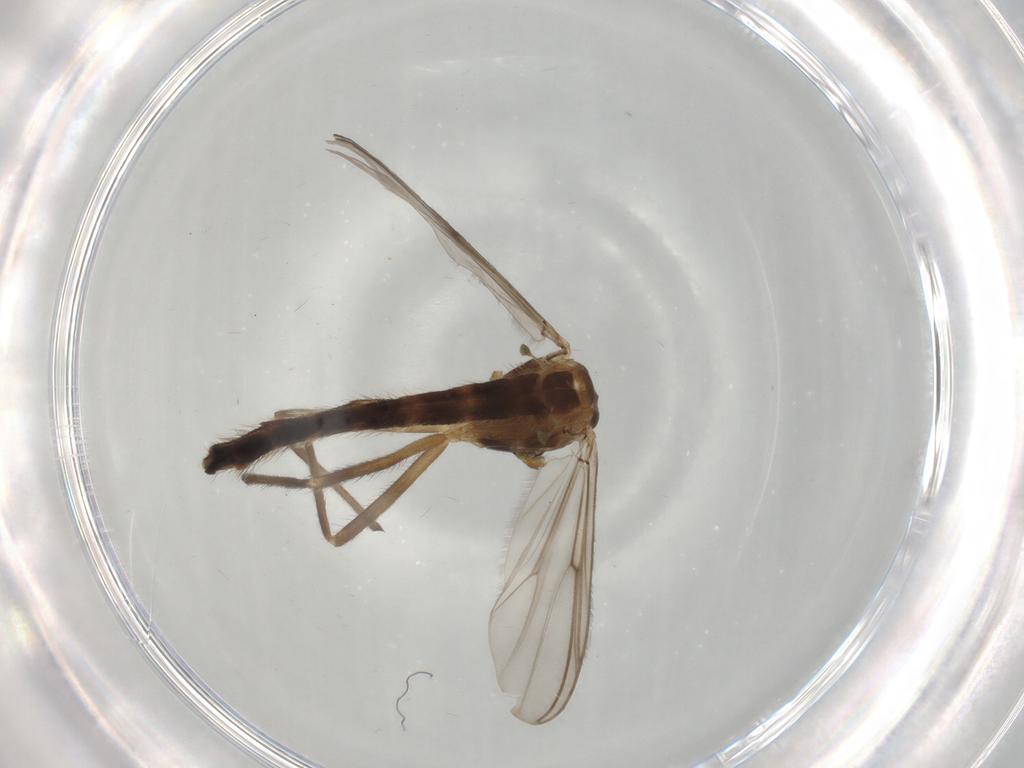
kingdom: Animalia
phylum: Arthropoda
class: Insecta
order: Diptera
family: Chironomidae
